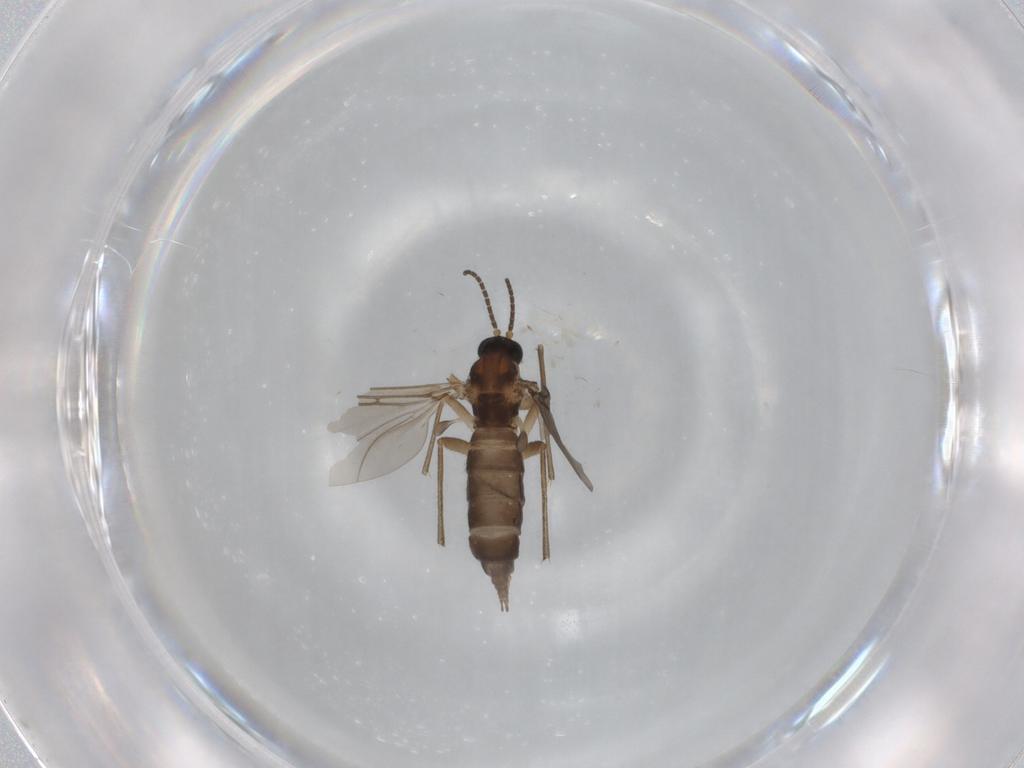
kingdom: Animalia
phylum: Arthropoda
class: Insecta
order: Diptera
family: Sciaridae
